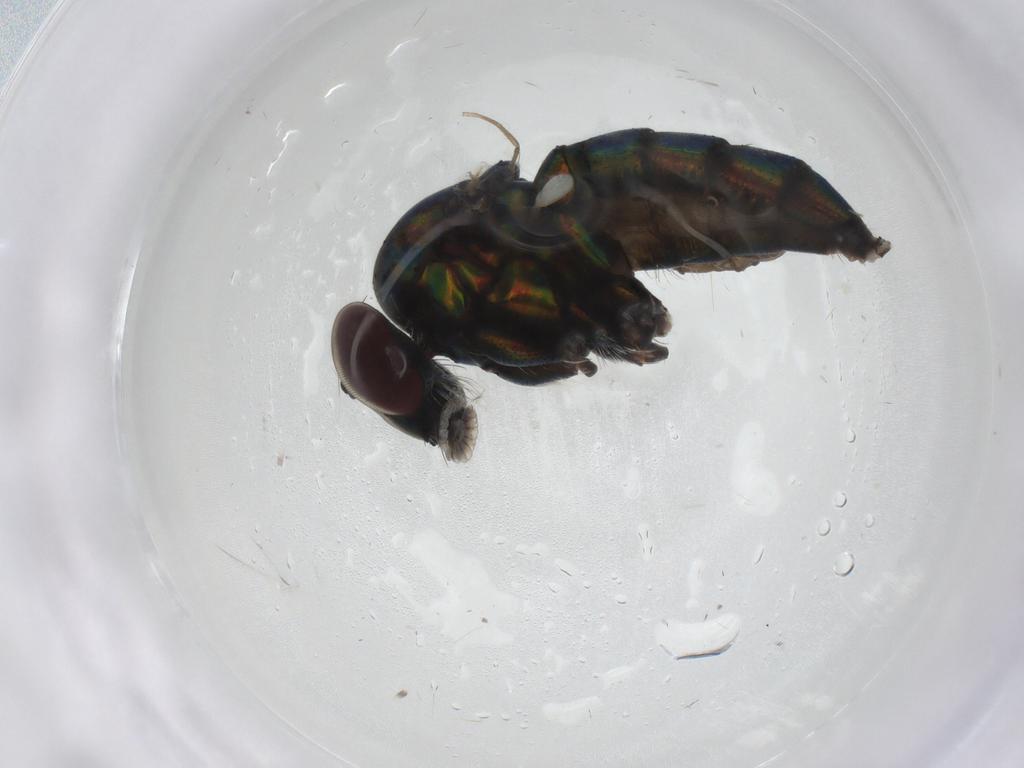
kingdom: Animalia
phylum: Arthropoda
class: Insecta
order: Diptera
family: Dolichopodidae
